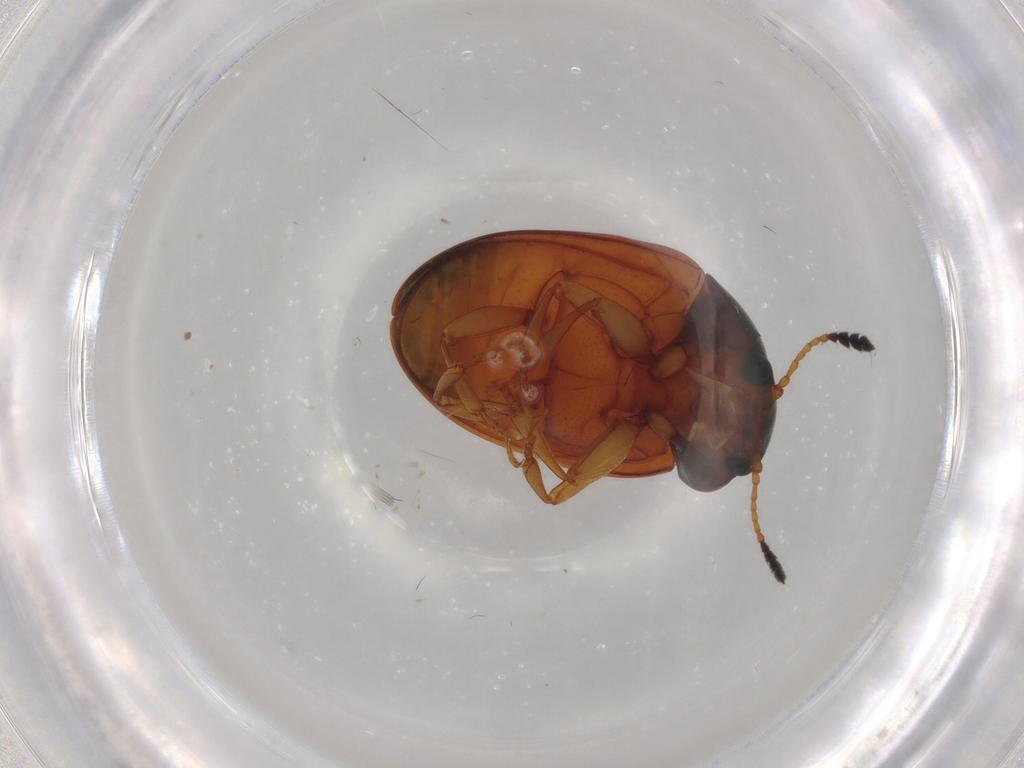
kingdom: Animalia
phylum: Arthropoda
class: Insecta
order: Coleoptera
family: Erotylidae
